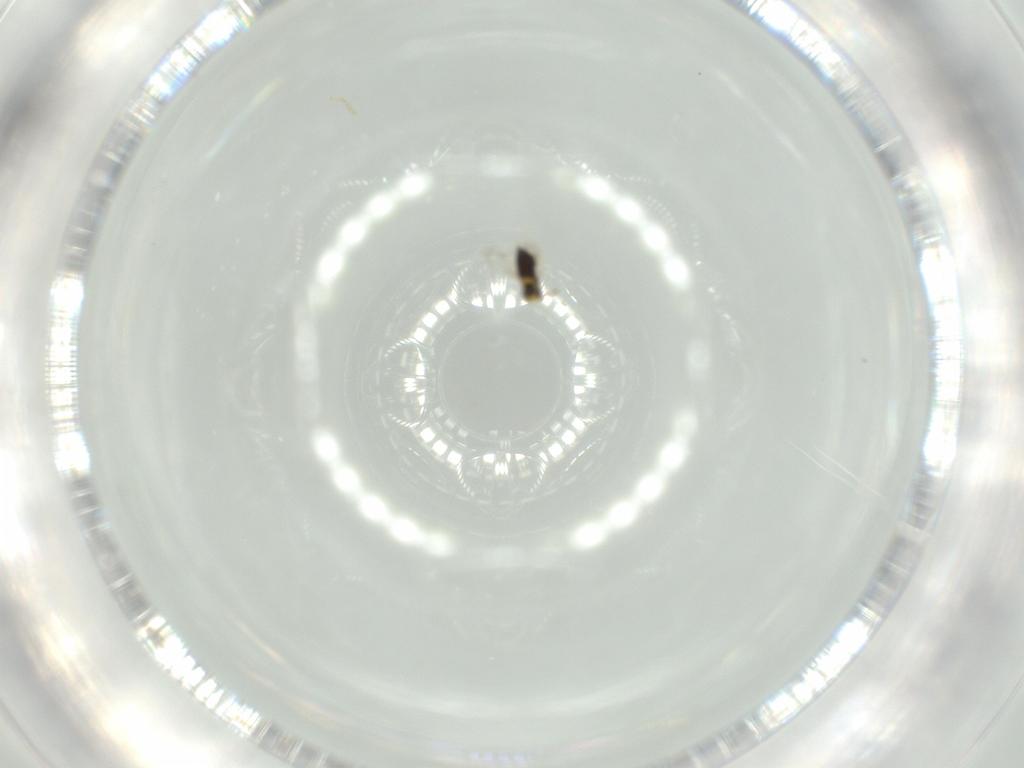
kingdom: Animalia
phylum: Arthropoda
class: Insecta
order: Hymenoptera
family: Signiphoridae
